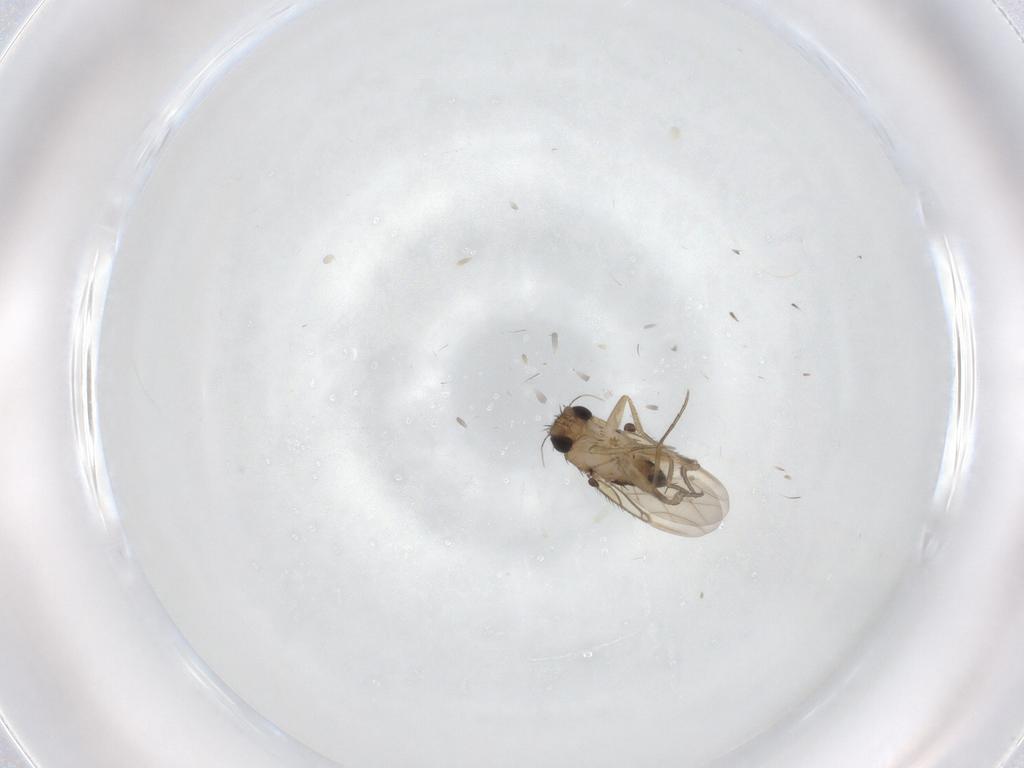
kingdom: Animalia
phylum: Arthropoda
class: Insecta
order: Diptera
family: Phoridae
